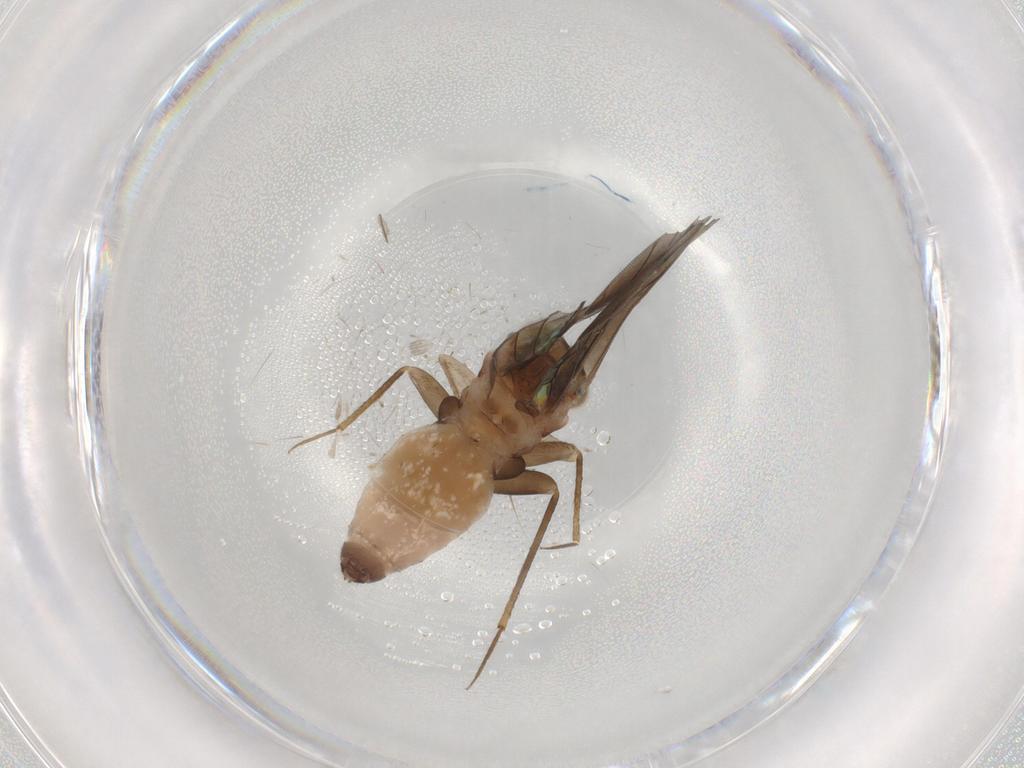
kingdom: Animalia
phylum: Arthropoda
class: Insecta
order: Psocodea
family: Lepidopsocidae
